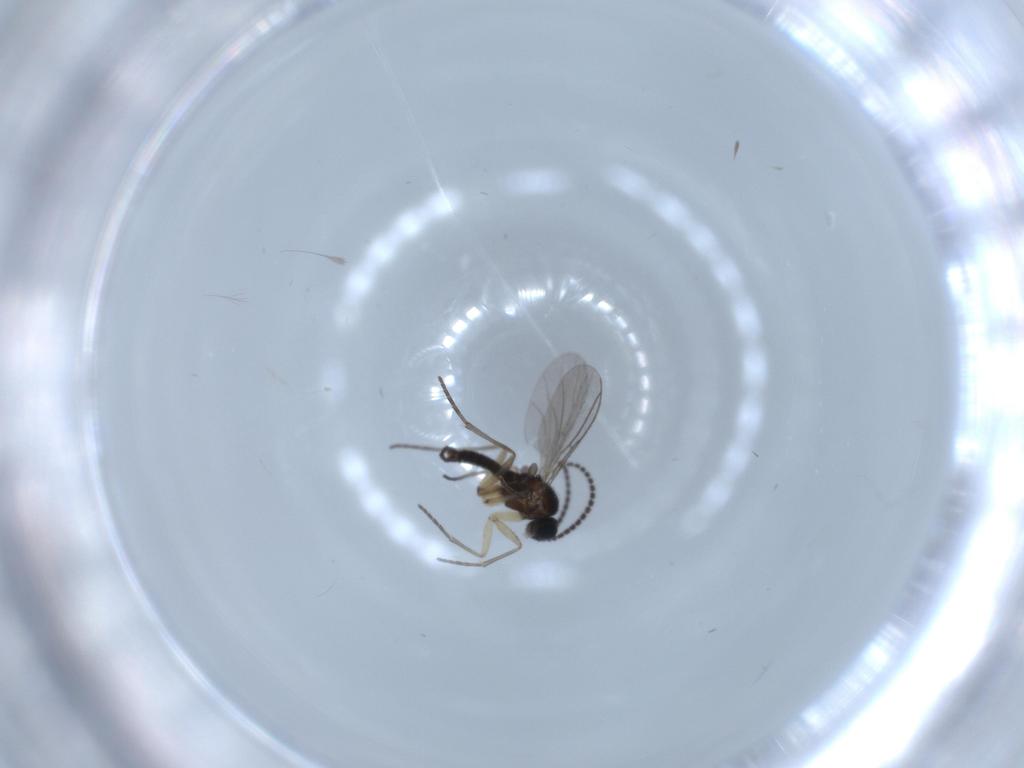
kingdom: Animalia
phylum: Arthropoda
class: Insecta
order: Diptera
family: Sciaridae
